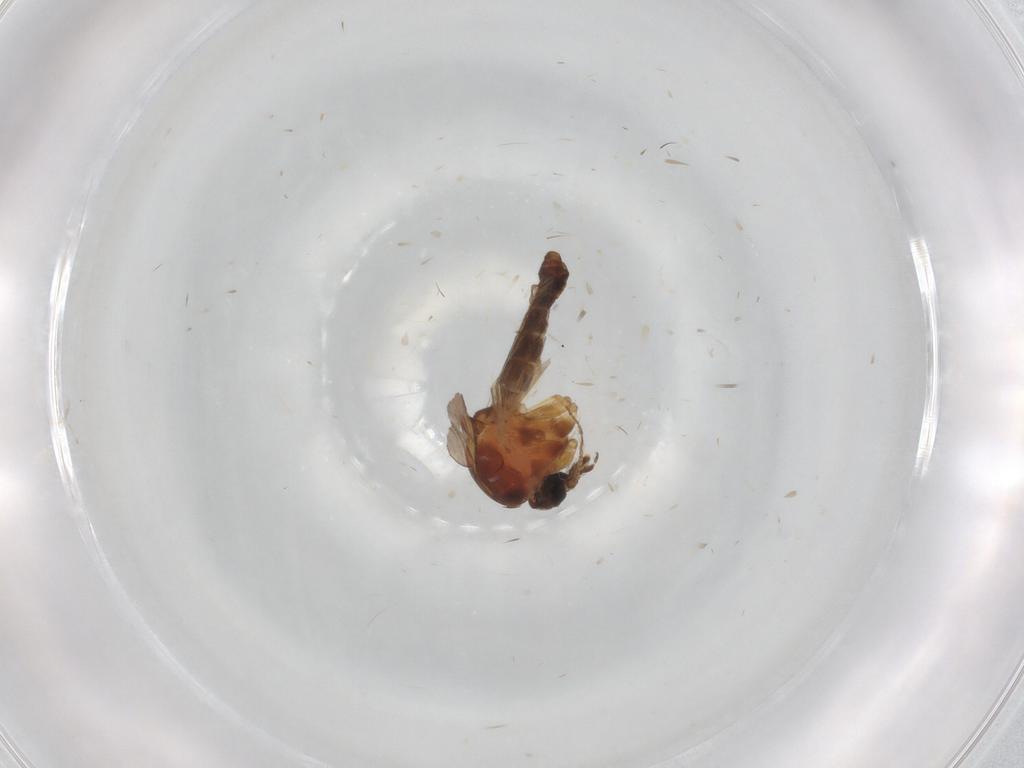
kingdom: Animalia
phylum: Arthropoda
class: Insecta
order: Diptera
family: Ceratopogonidae
